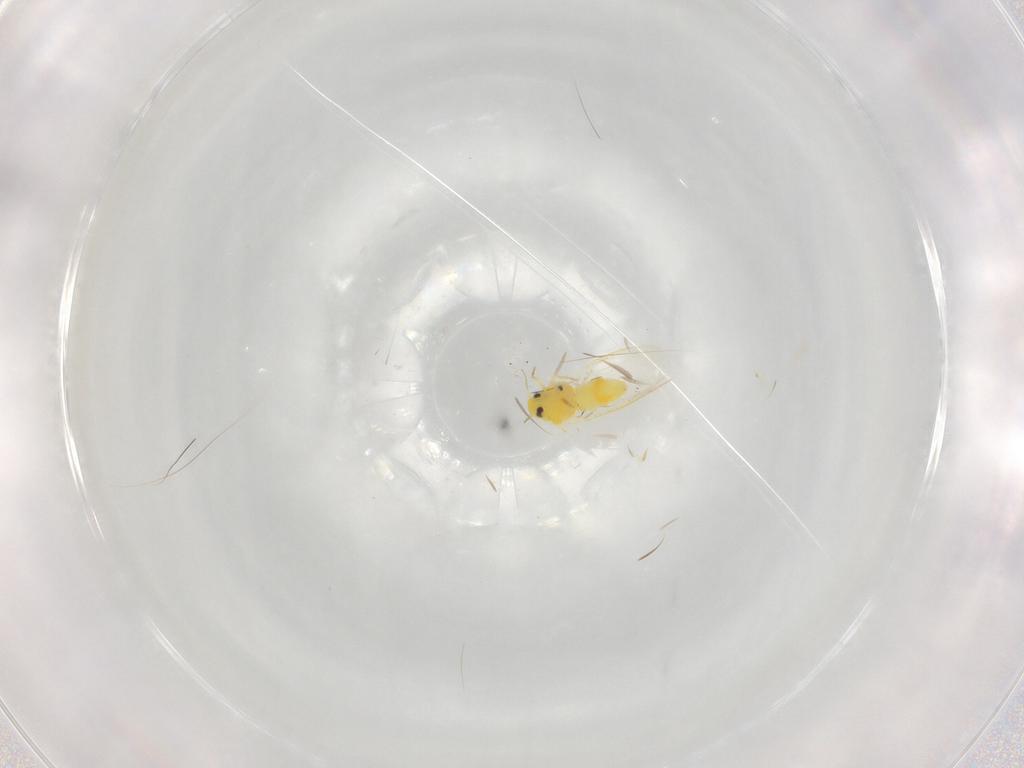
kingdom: Animalia
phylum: Arthropoda
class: Insecta
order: Hemiptera
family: Aleyrodidae
